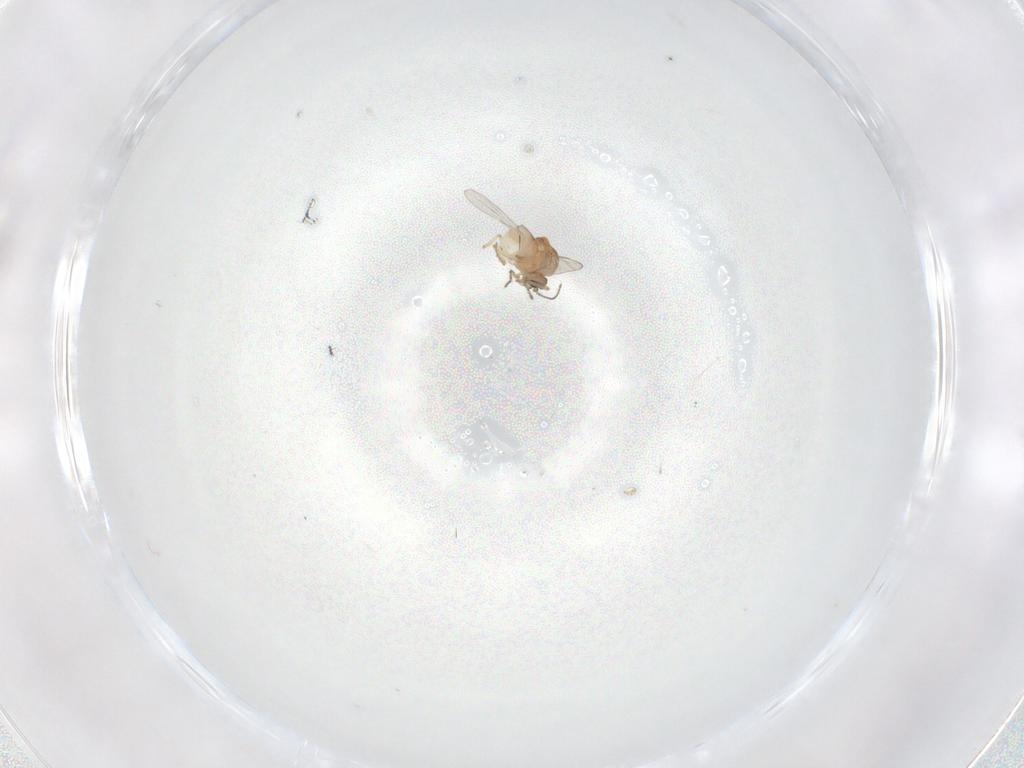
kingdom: Animalia
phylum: Arthropoda
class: Insecta
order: Diptera
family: Ceratopogonidae
